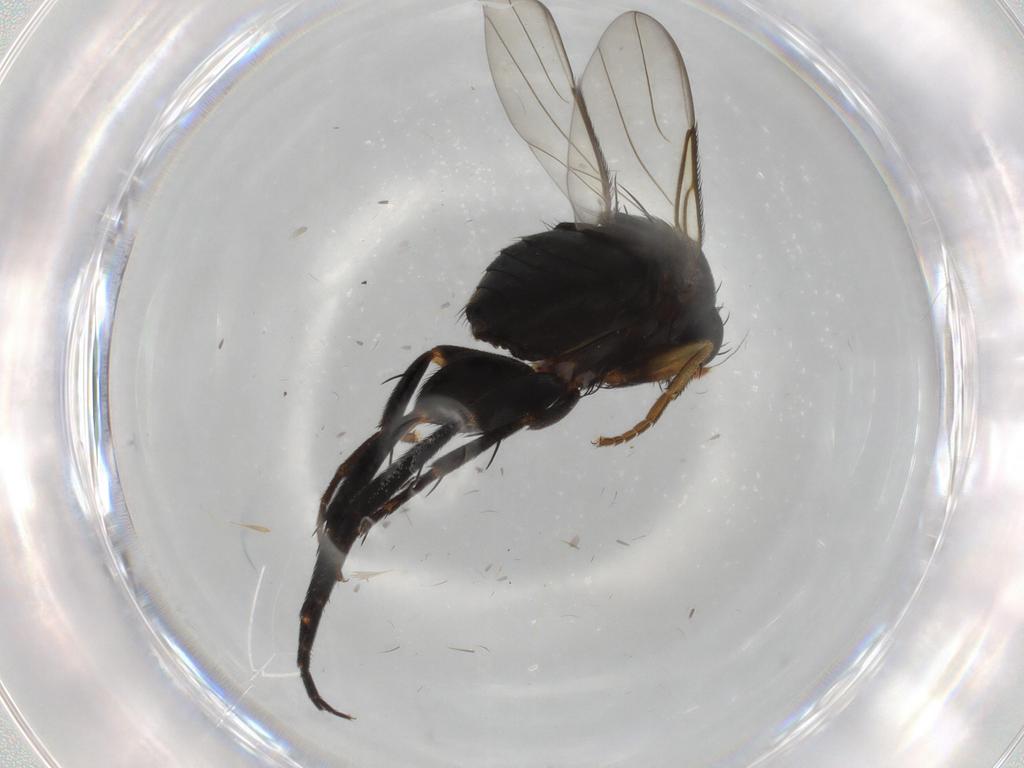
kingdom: Animalia
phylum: Arthropoda
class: Insecta
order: Diptera
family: Phoridae
